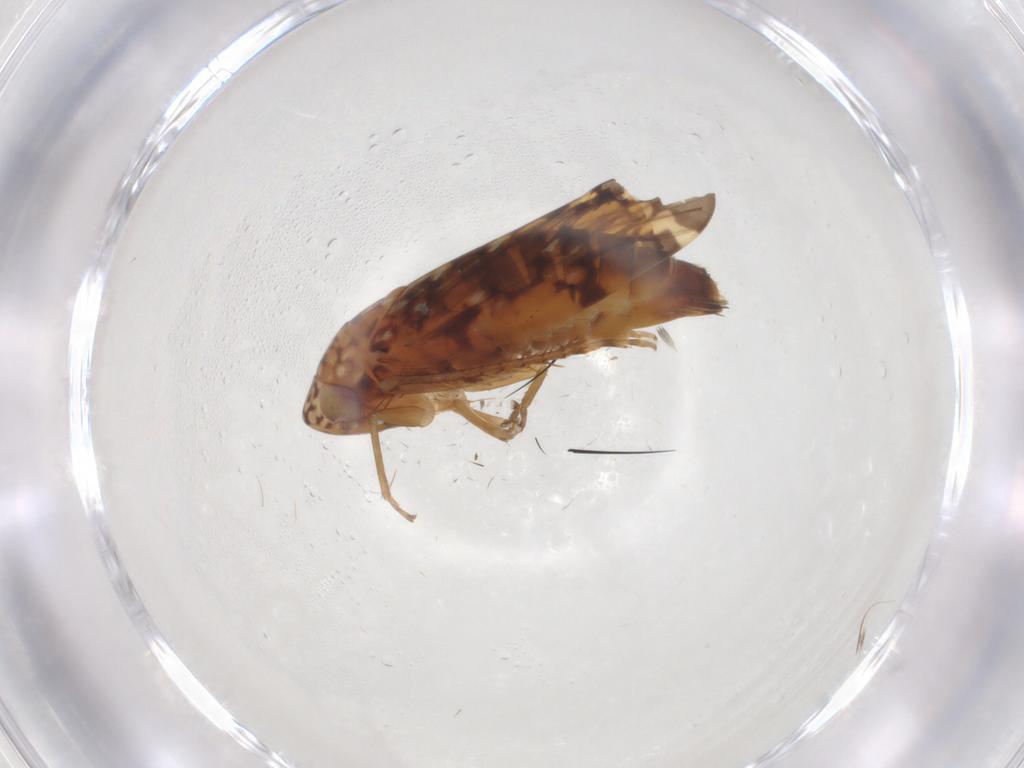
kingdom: Animalia
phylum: Arthropoda
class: Insecta
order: Hemiptera
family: Cicadellidae
